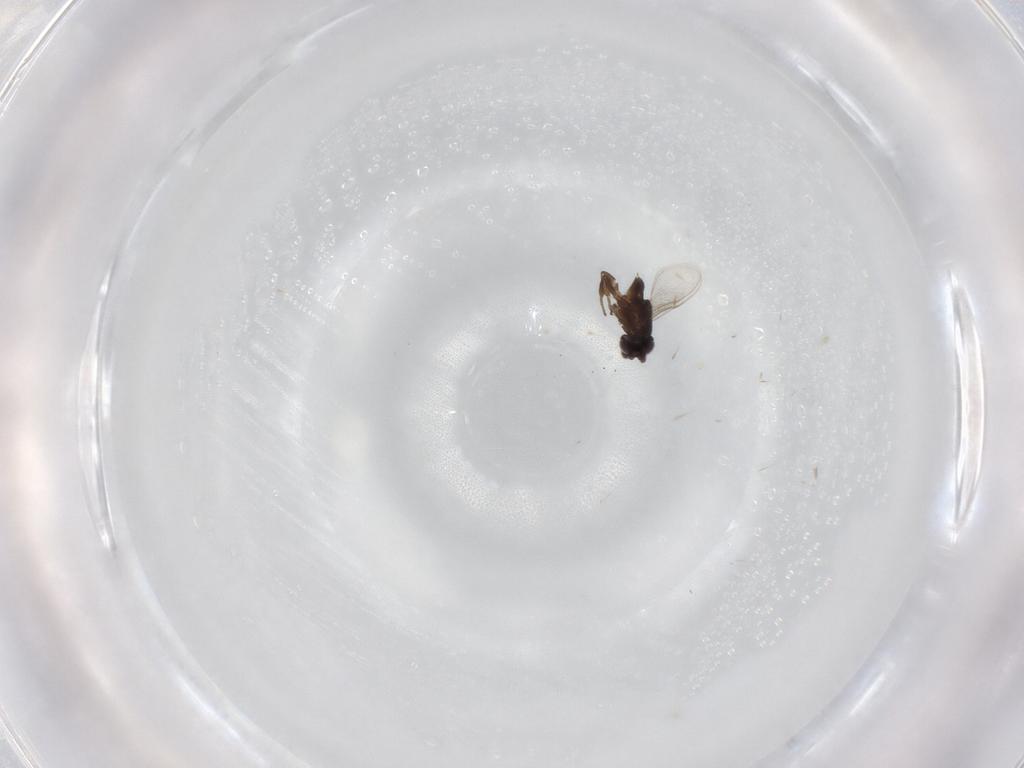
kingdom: Animalia
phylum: Arthropoda
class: Insecta
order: Hymenoptera
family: Encyrtidae
